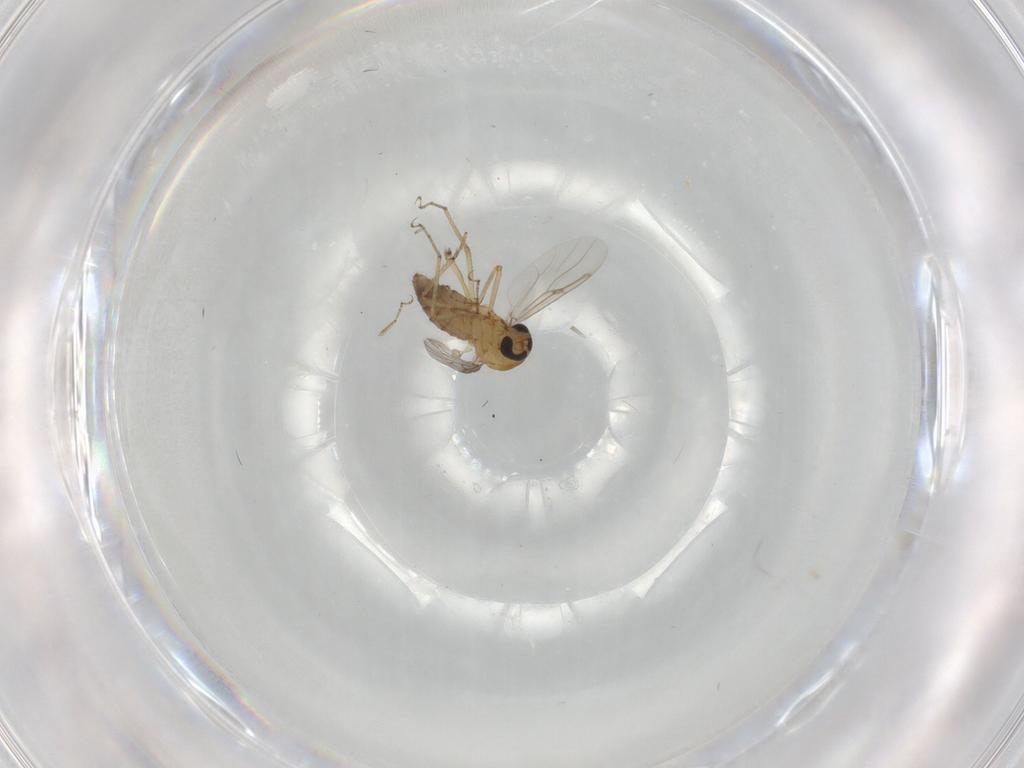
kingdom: Animalia
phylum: Arthropoda
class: Insecta
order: Diptera
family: Ceratopogonidae
